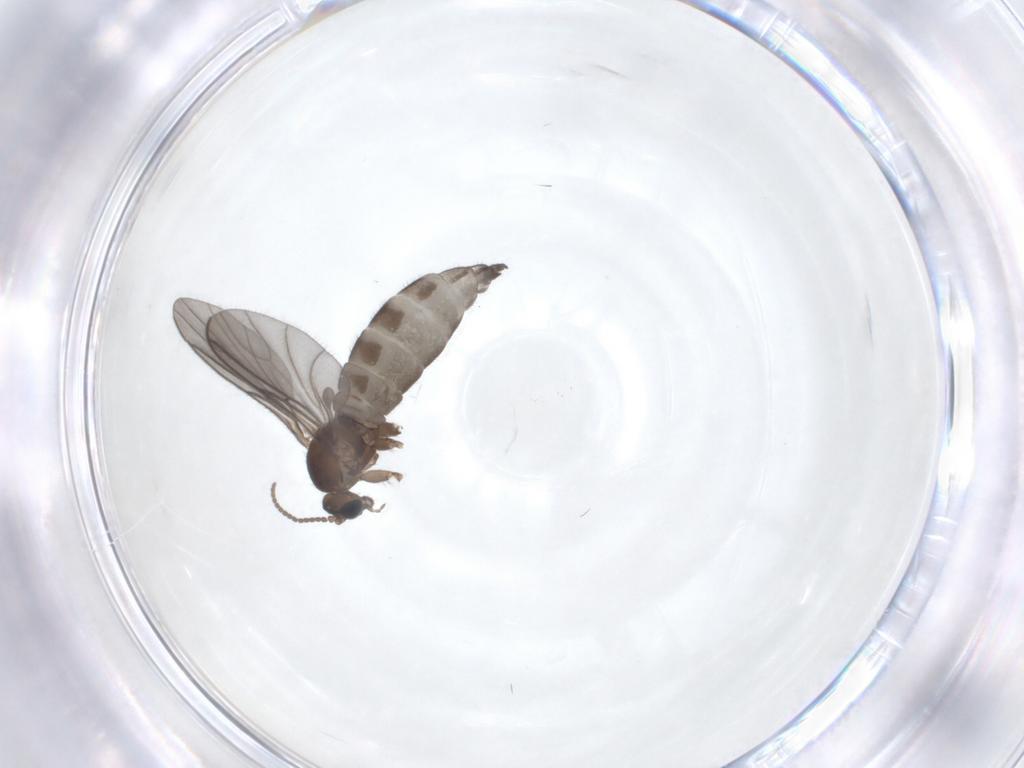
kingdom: Animalia
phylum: Arthropoda
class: Insecta
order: Diptera
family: Sciaridae
